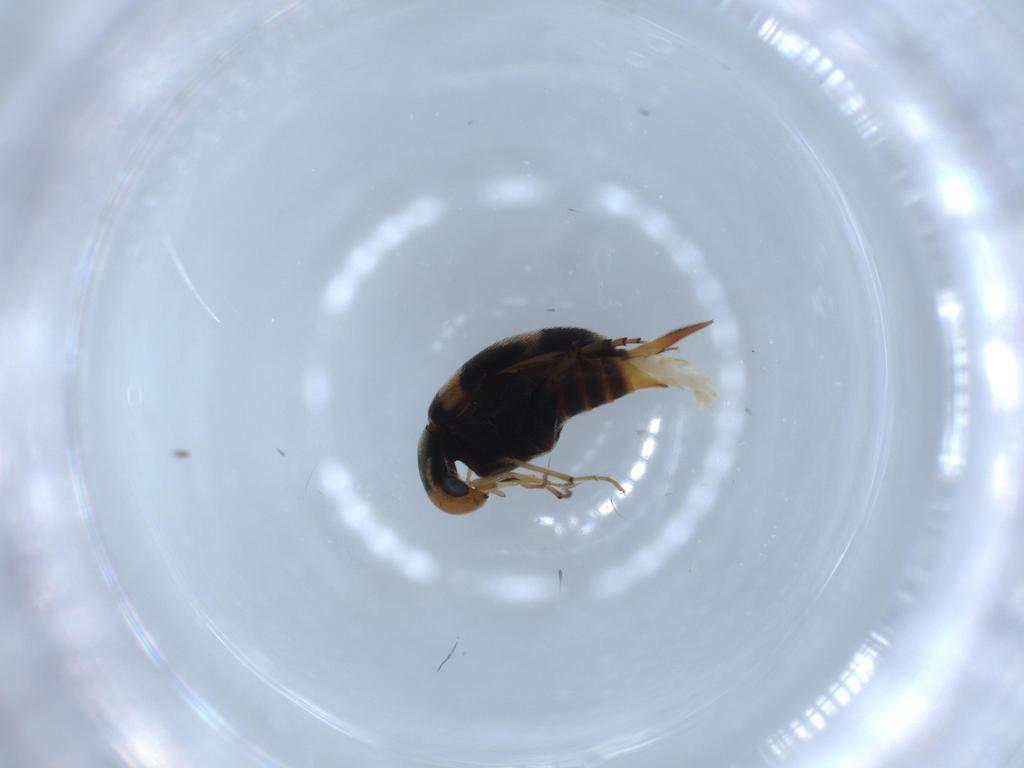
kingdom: Animalia
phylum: Arthropoda
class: Insecta
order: Coleoptera
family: Mordellidae
